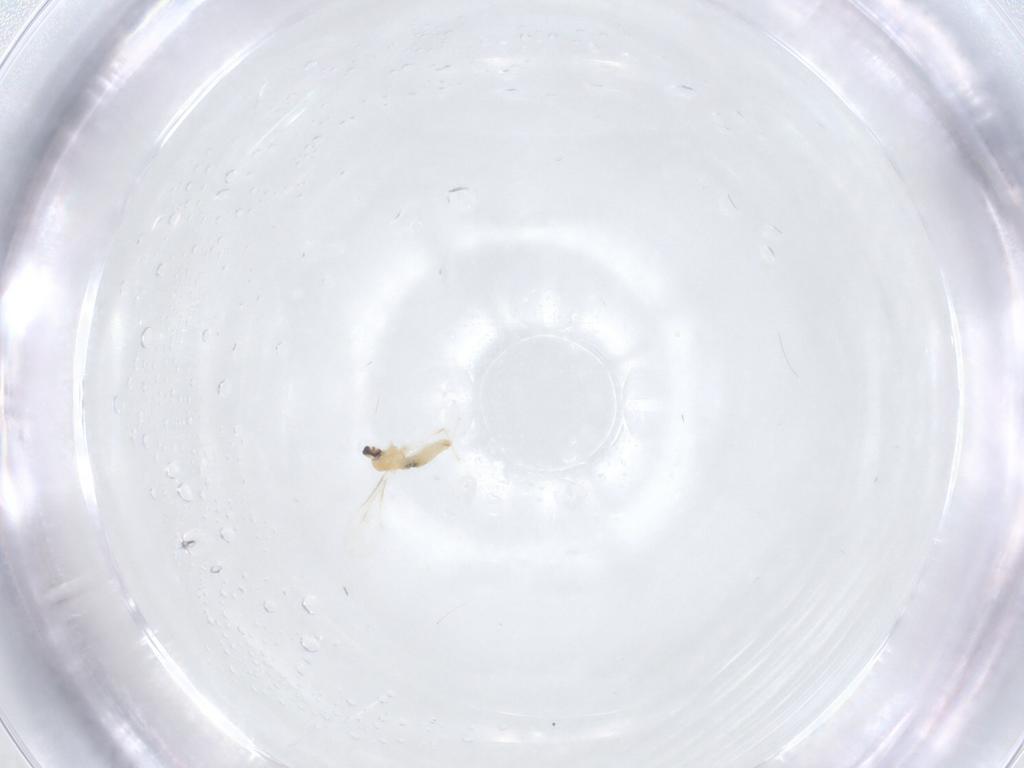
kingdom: Animalia
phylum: Arthropoda
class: Insecta
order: Diptera
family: Cecidomyiidae
